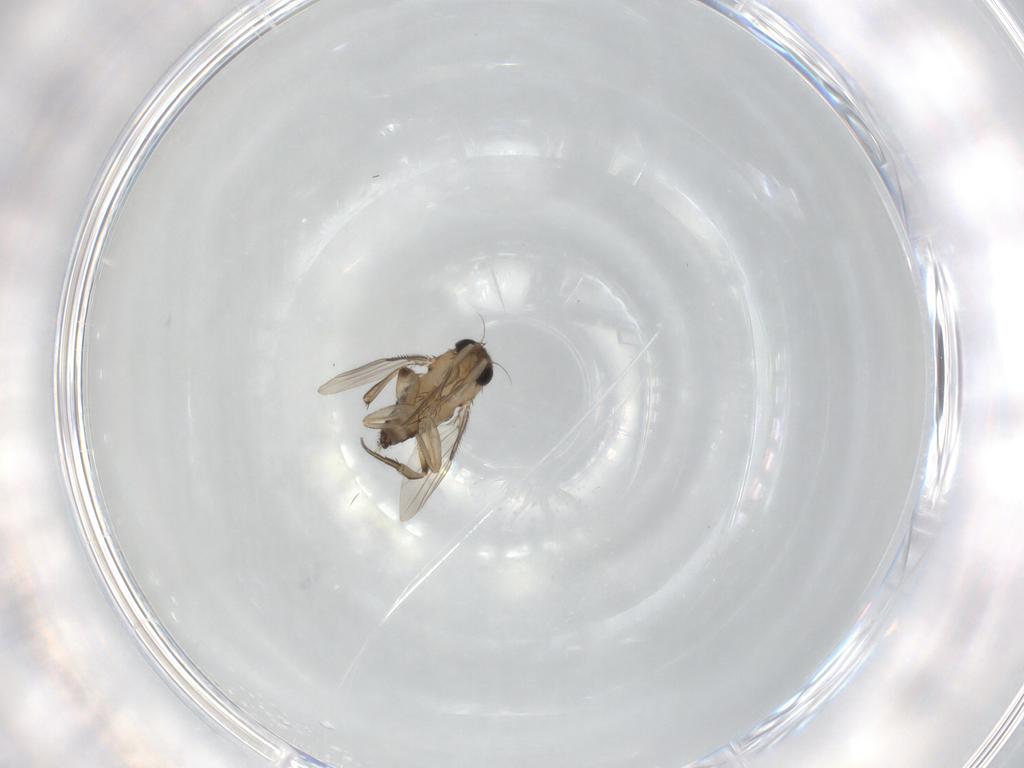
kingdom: Animalia
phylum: Arthropoda
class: Insecta
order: Diptera
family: Phoridae
